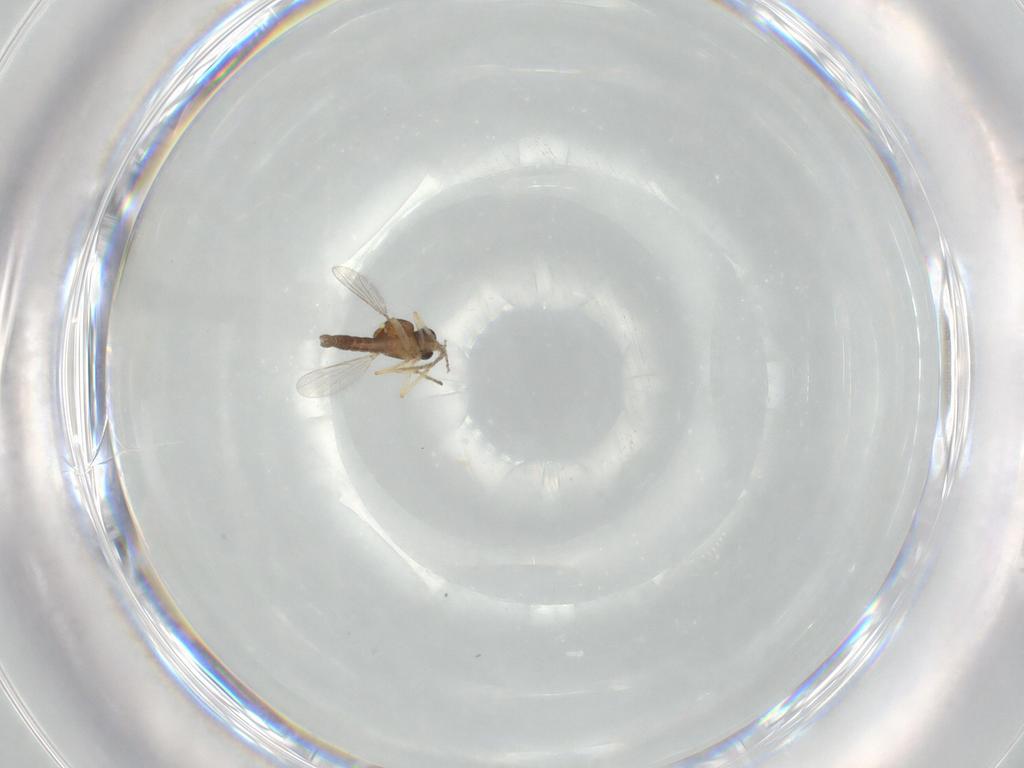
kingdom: Animalia
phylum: Arthropoda
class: Insecta
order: Diptera
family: Ceratopogonidae
